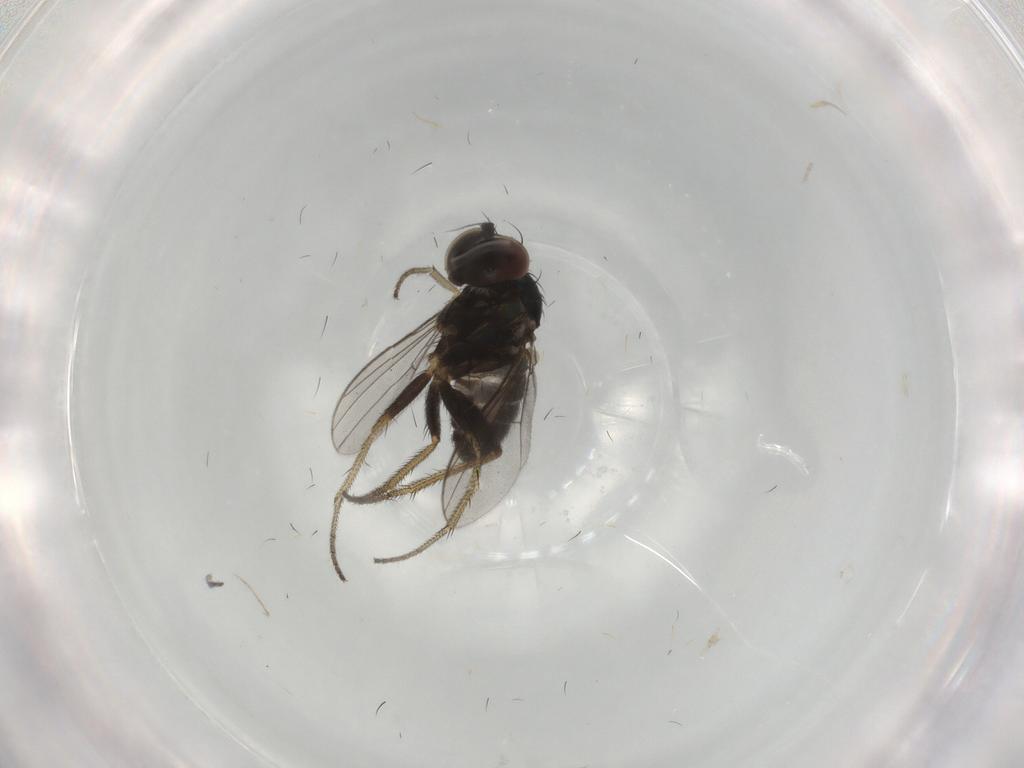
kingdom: Animalia
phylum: Arthropoda
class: Insecta
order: Diptera
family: Dolichopodidae
